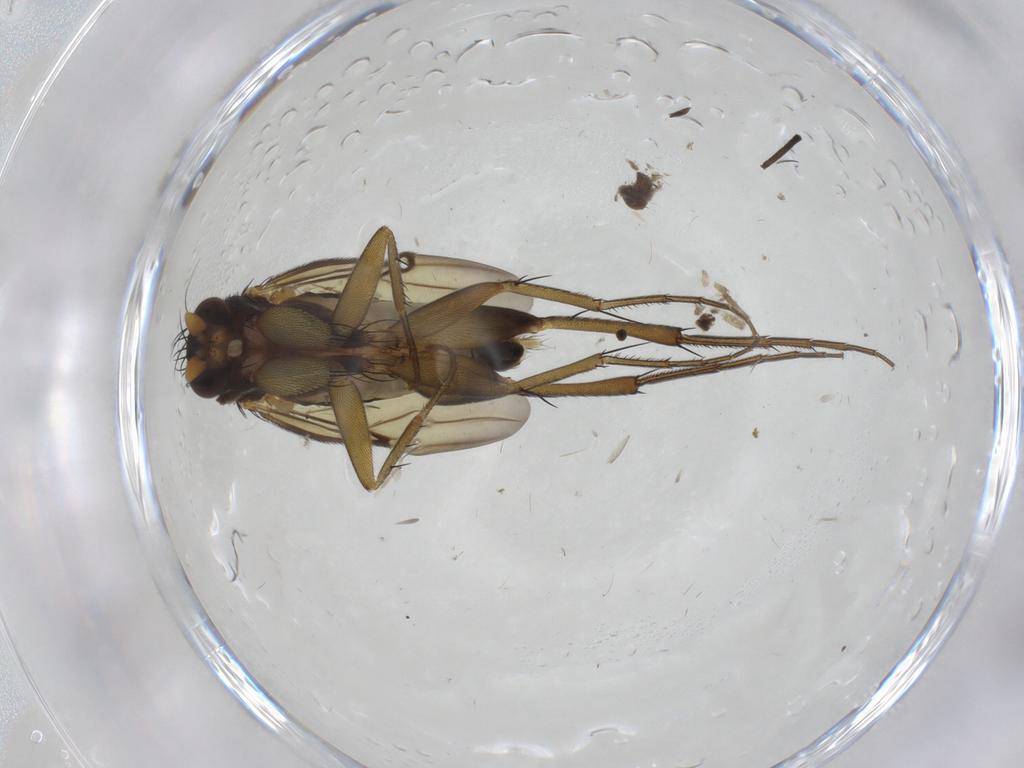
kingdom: Animalia
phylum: Arthropoda
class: Insecta
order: Diptera
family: Phoridae
